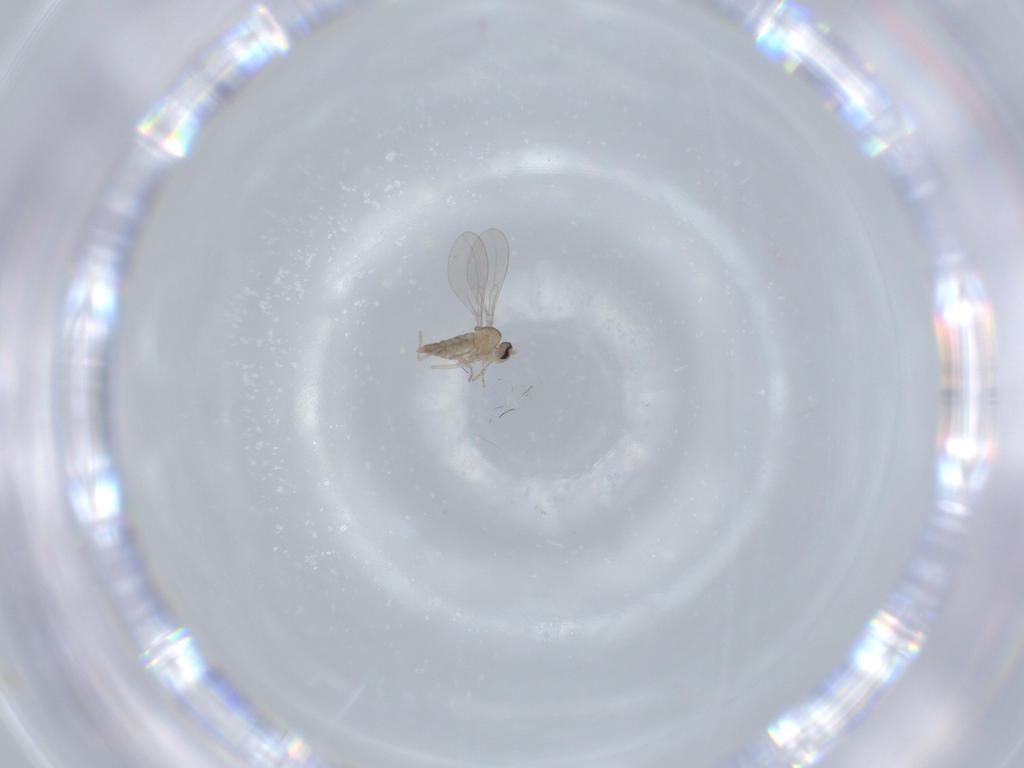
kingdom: Animalia
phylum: Arthropoda
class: Insecta
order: Diptera
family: Cecidomyiidae
